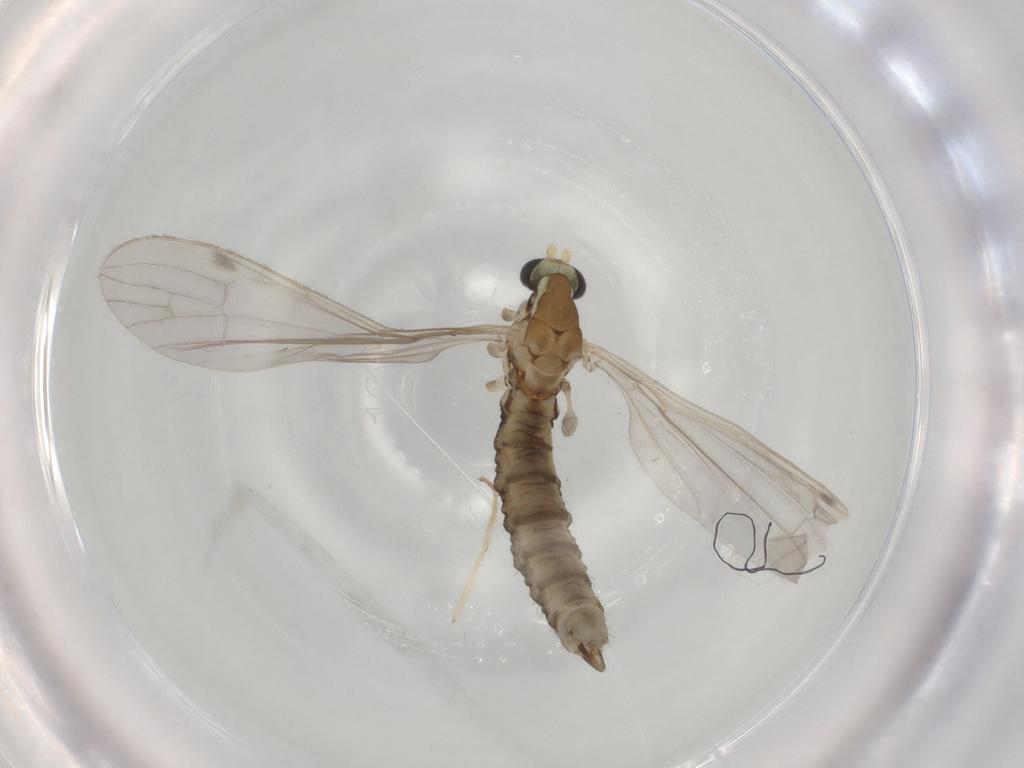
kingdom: Animalia
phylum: Arthropoda
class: Insecta
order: Diptera
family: Limoniidae
